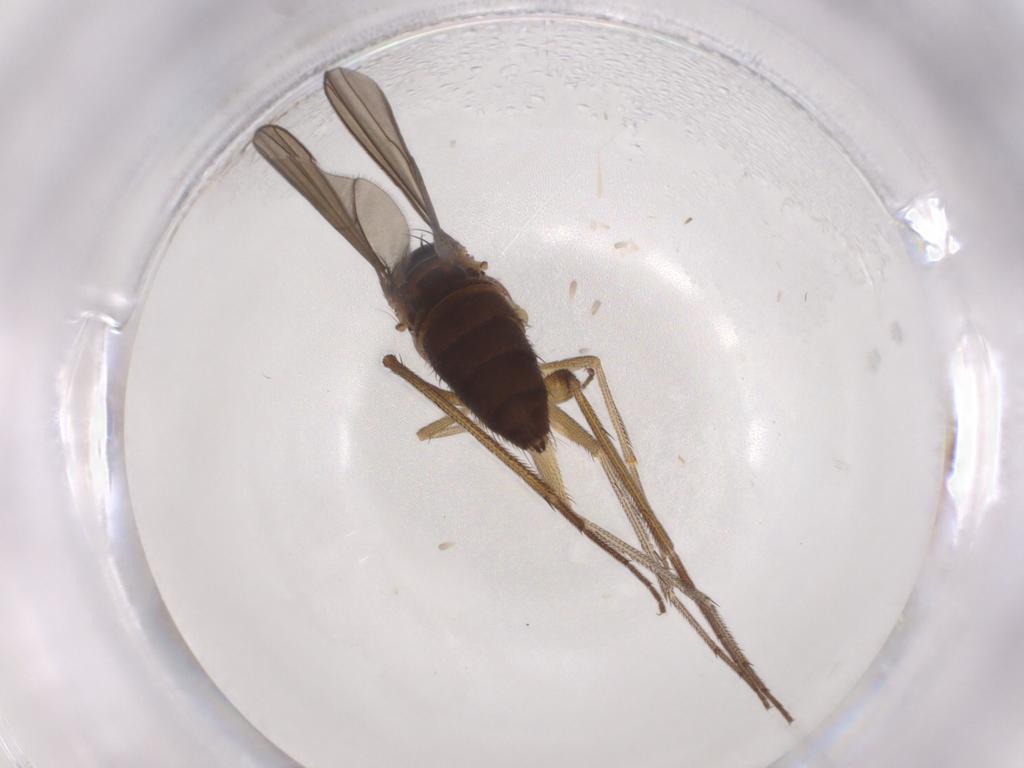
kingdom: Animalia
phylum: Arthropoda
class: Insecta
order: Diptera
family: Dolichopodidae
